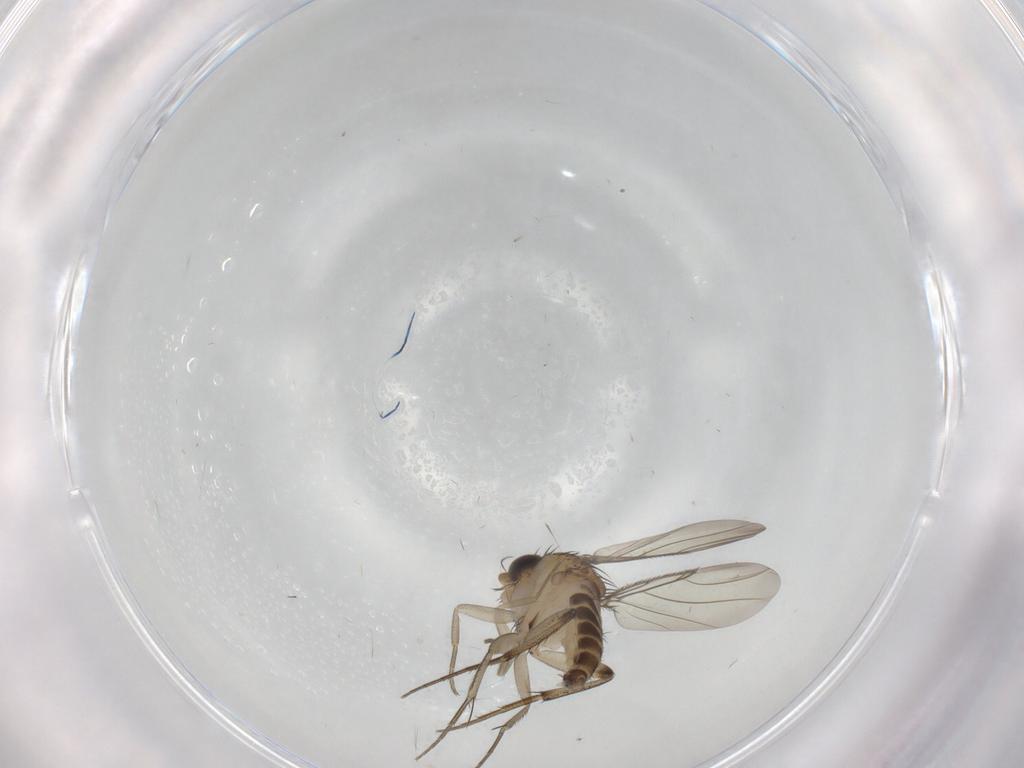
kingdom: Animalia
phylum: Arthropoda
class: Insecta
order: Diptera
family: Phoridae
